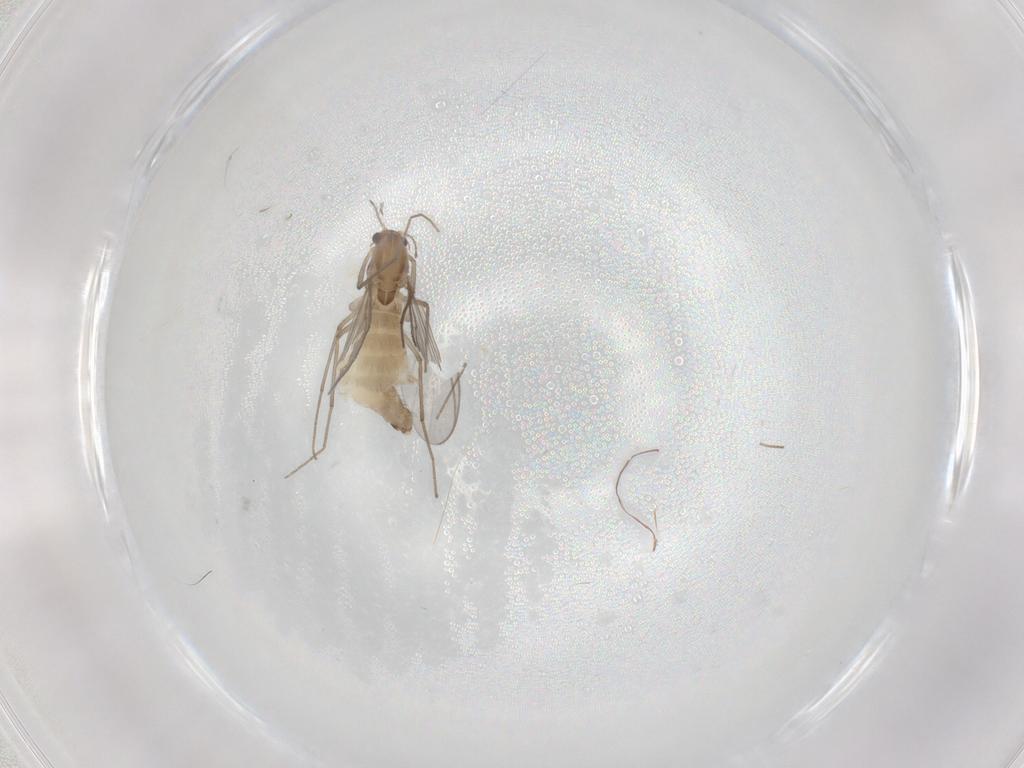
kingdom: Animalia
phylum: Arthropoda
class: Insecta
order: Diptera
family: Chironomidae
